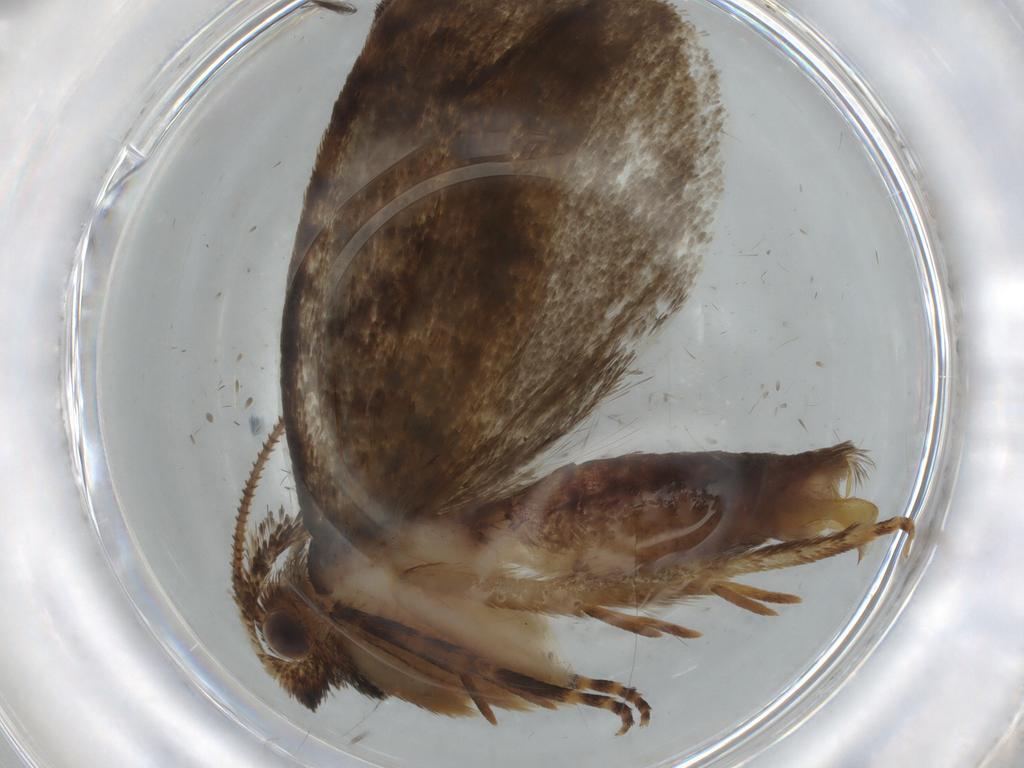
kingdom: Animalia
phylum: Arthropoda
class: Insecta
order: Lepidoptera
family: Tineidae
